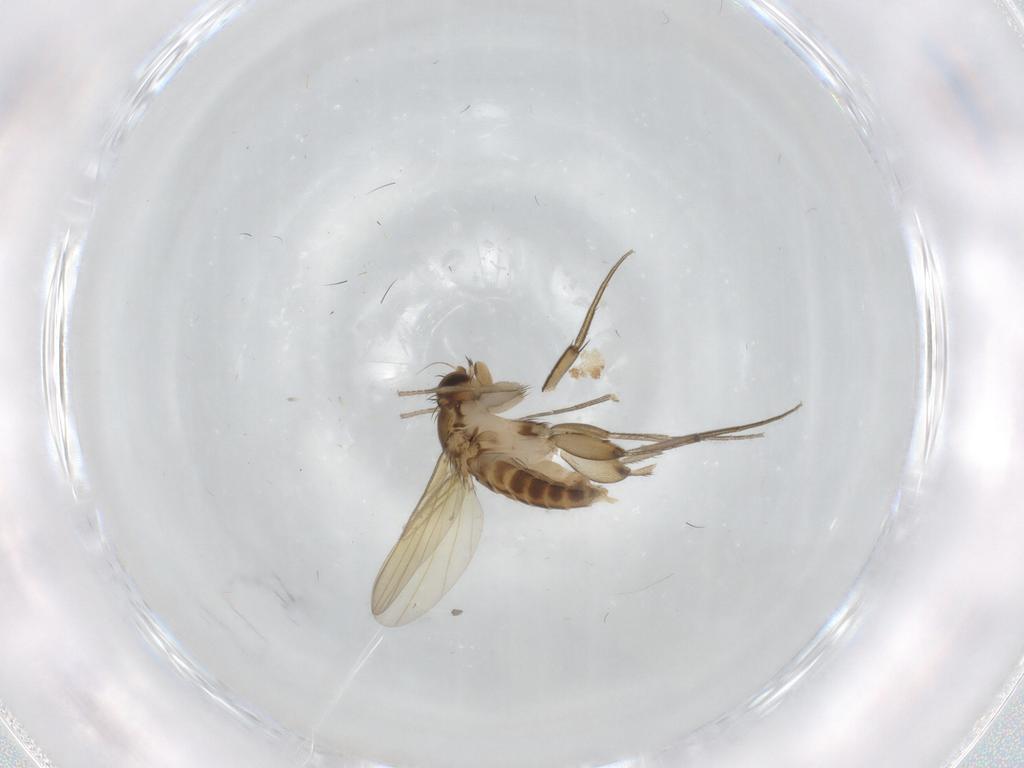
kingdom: Animalia
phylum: Arthropoda
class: Insecta
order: Diptera
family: Phoridae
